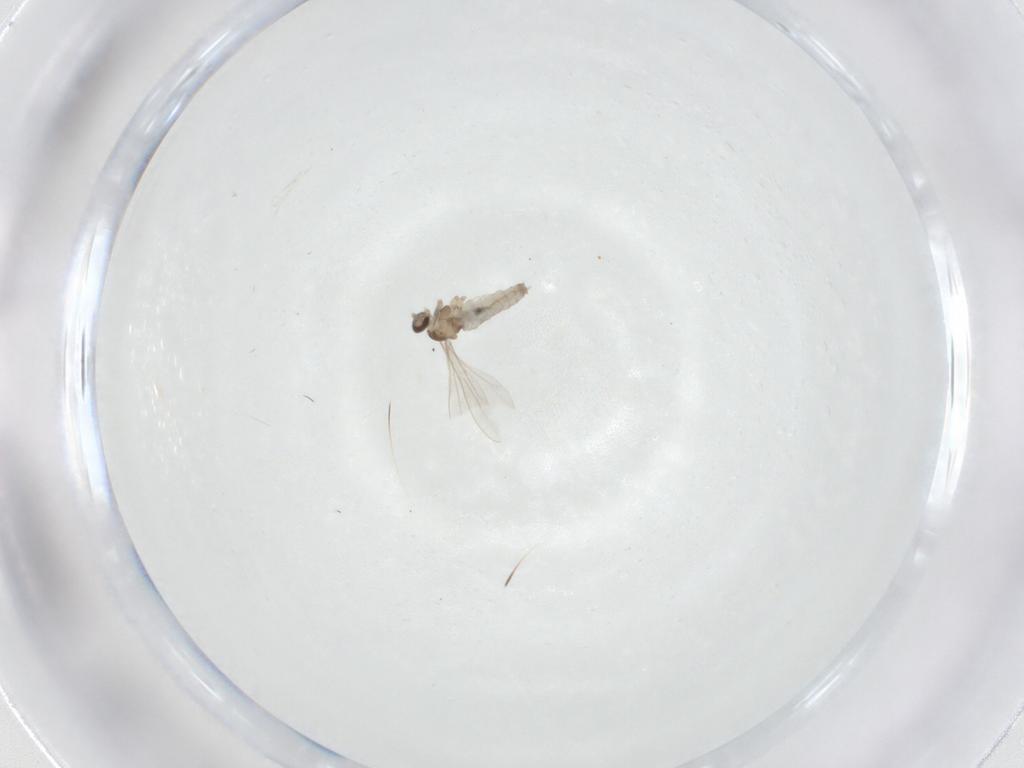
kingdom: Animalia
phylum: Arthropoda
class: Insecta
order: Diptera
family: Cecidomyiidae
